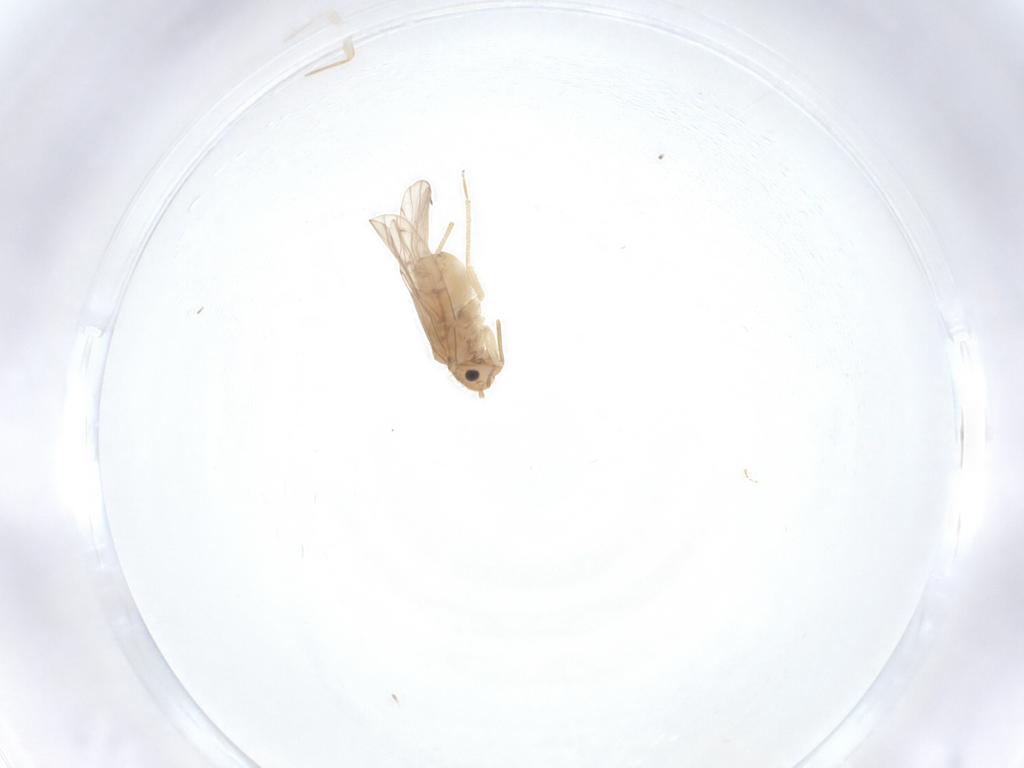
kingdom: Animalia
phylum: Arthropoda
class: Insecta
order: Psocodea
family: Ectopsocidae
